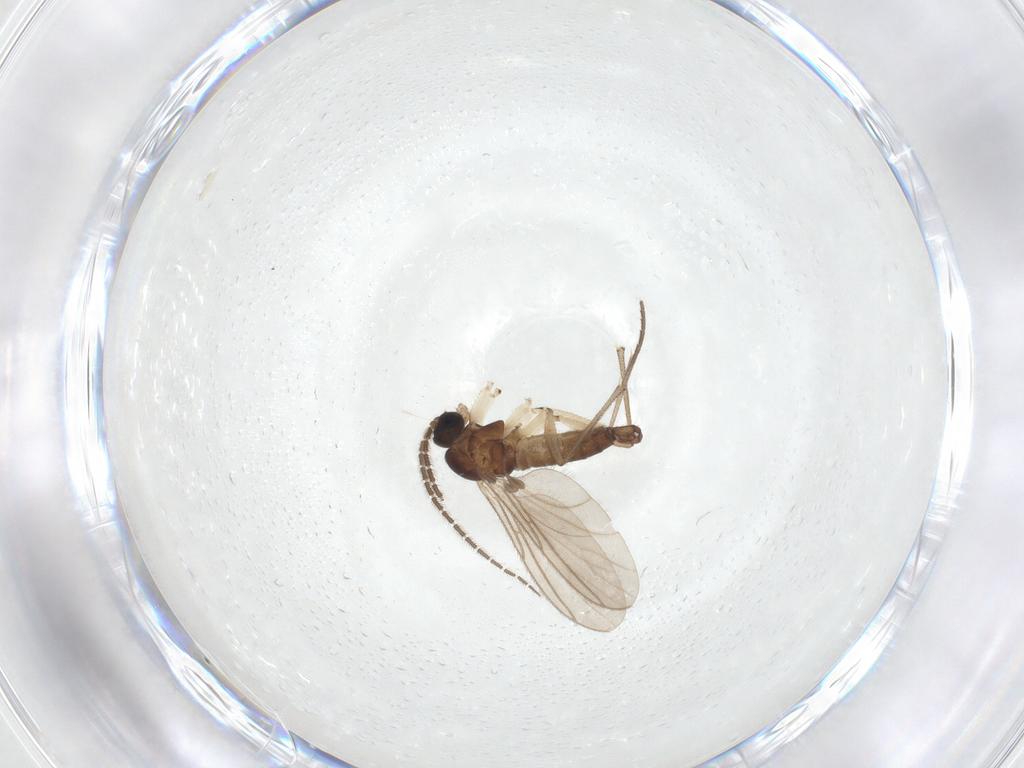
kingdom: Animalia
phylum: Arthropoda
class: Insecta
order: Diptera
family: Sciaridae
